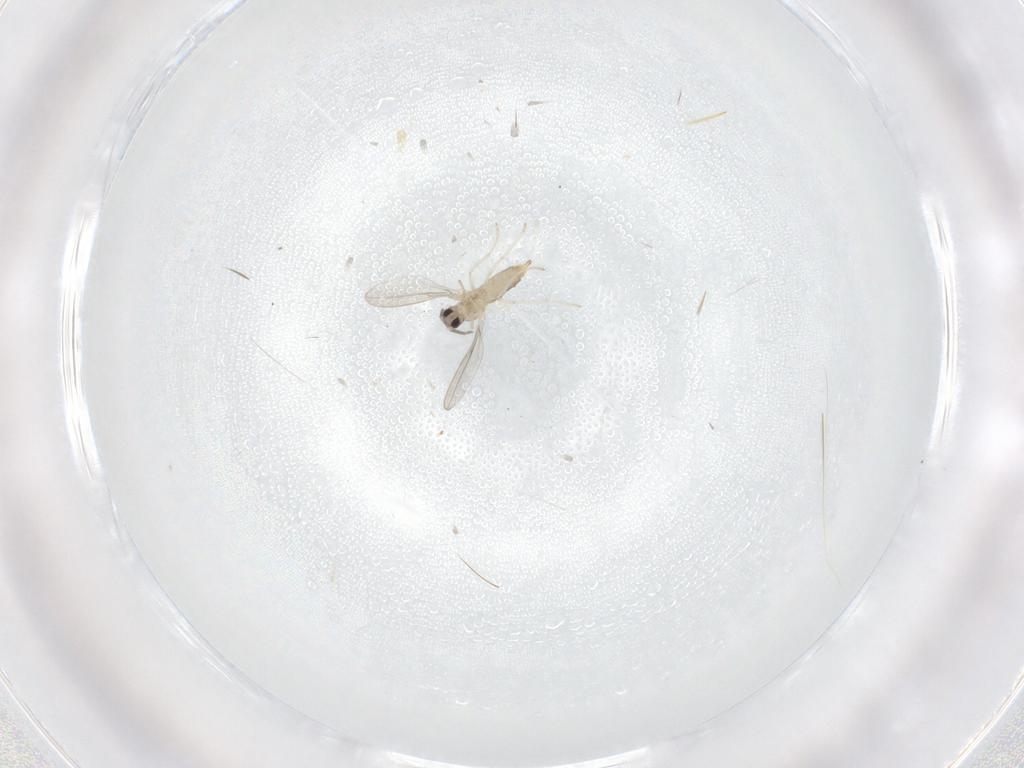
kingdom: Animalia
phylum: Arthropoda
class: Insecta
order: Diptera
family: Cecidomyiidae
